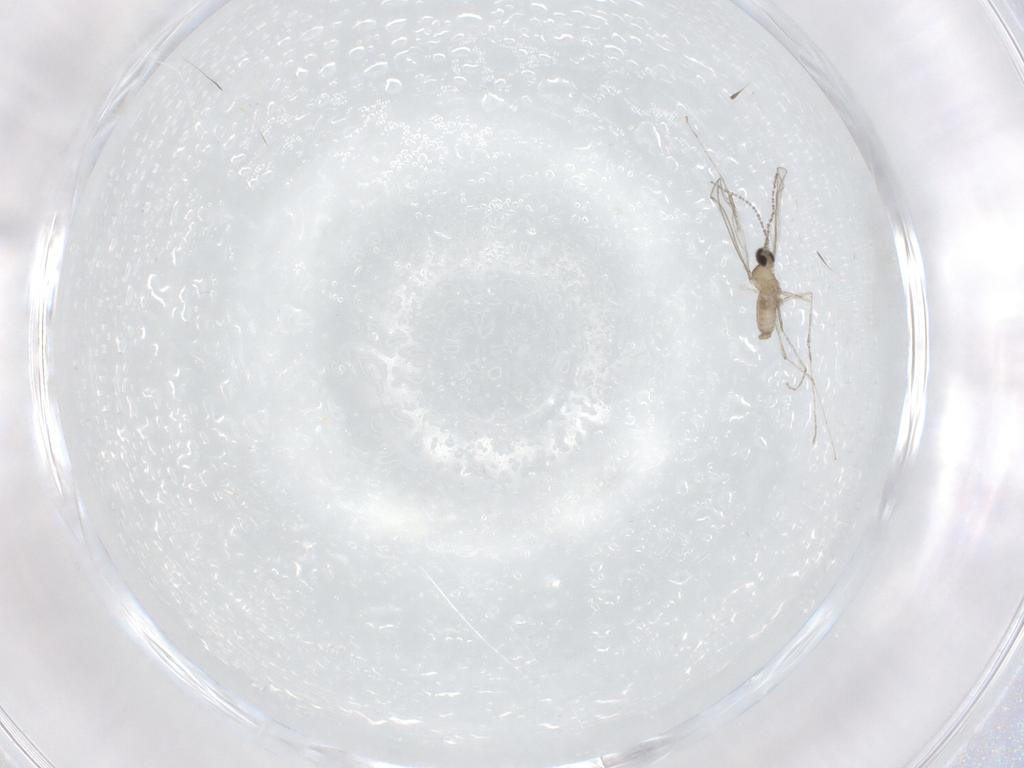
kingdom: Animalia
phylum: Arthropoda
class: Insecta
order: Diptera
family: Cecidomyiidae
